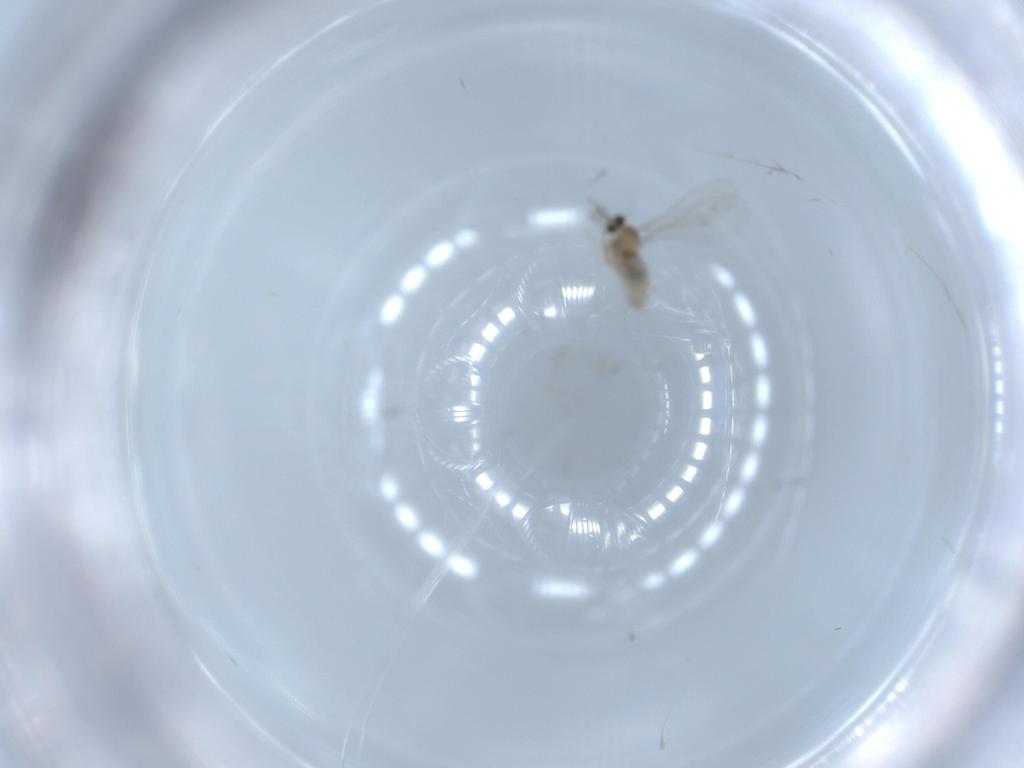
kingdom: Animalia
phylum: Arthropoda
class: Insecta
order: Diptera
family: Cecidomyiidae
